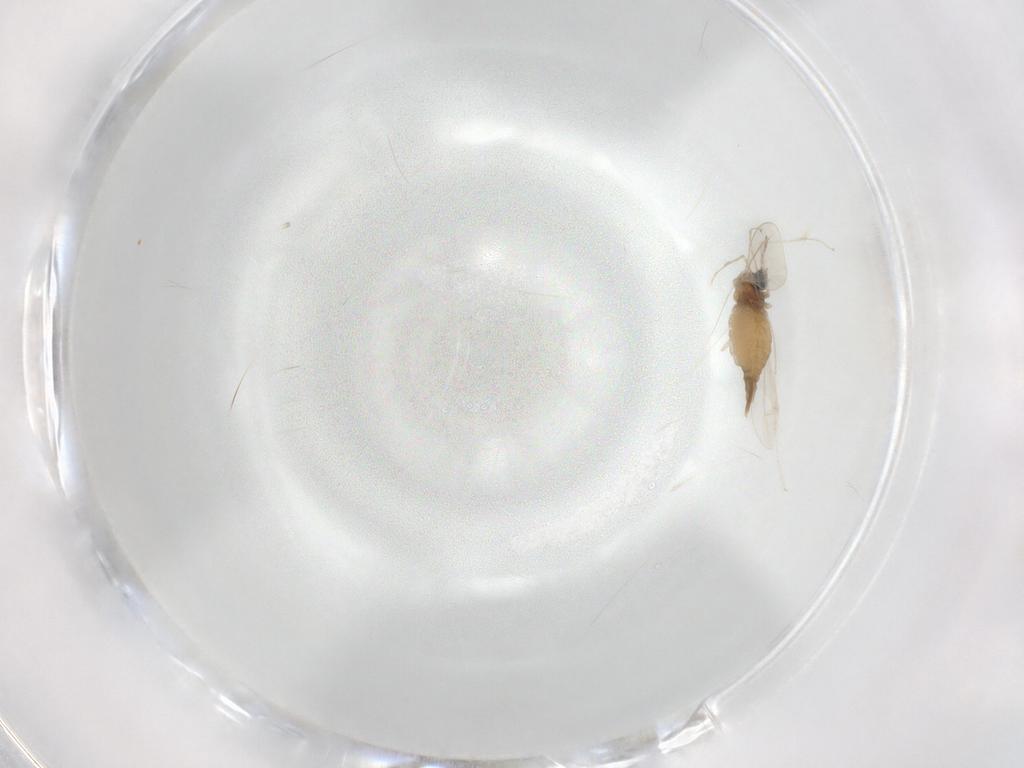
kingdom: Animalia
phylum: Arthropoda
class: Insecta
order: Diptera
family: Cecidomyiidae
